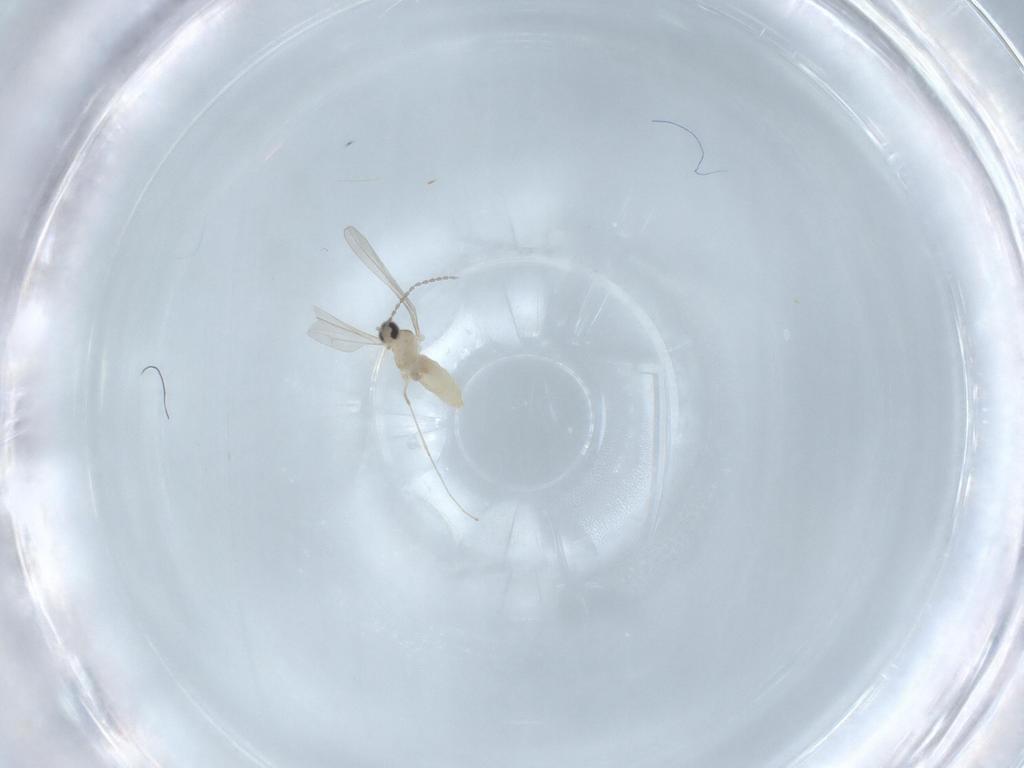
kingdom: Animalia
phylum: Arthropoda
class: Insecta
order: Diptera
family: Cecidomyiidae
